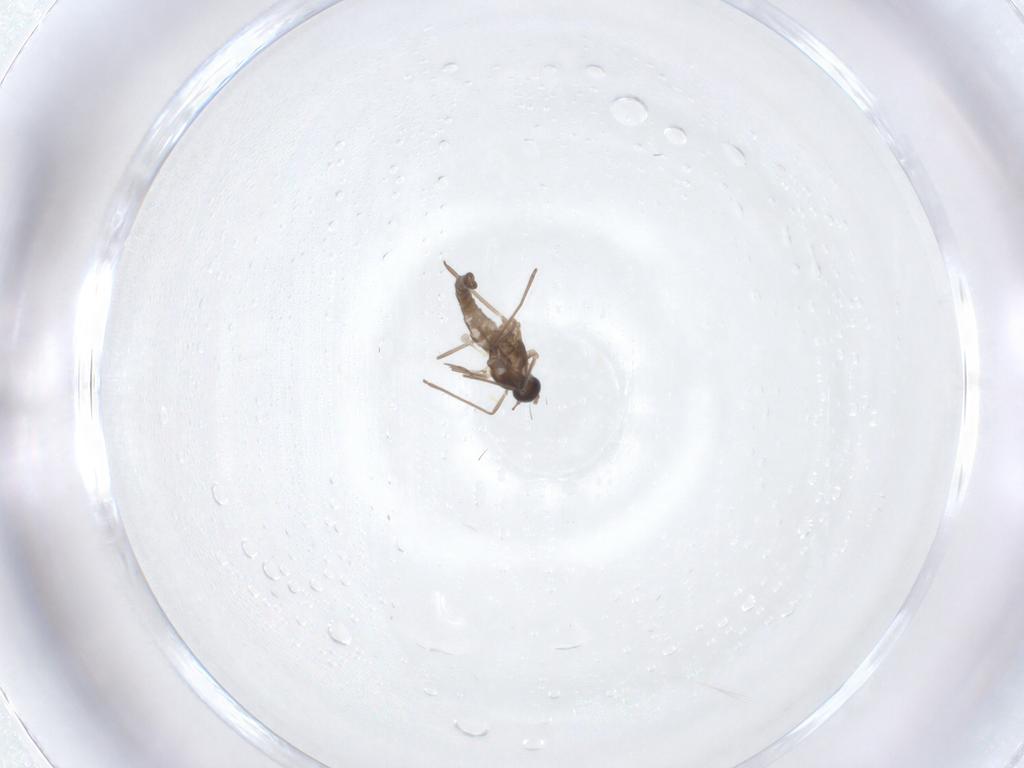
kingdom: Animalia
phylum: Arthropoda
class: Insecta
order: Diptera
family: Cecidomyiidae
